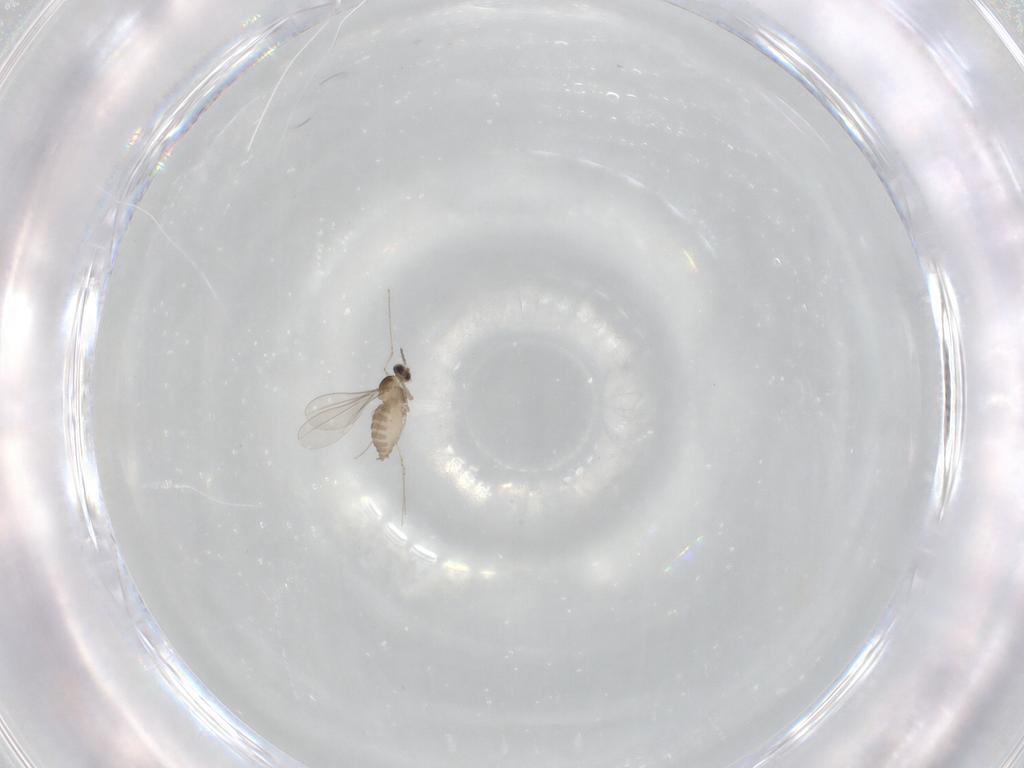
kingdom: Animalia
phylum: Arthropoda
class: Insecta
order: Diptera
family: Cecidomyiidae
